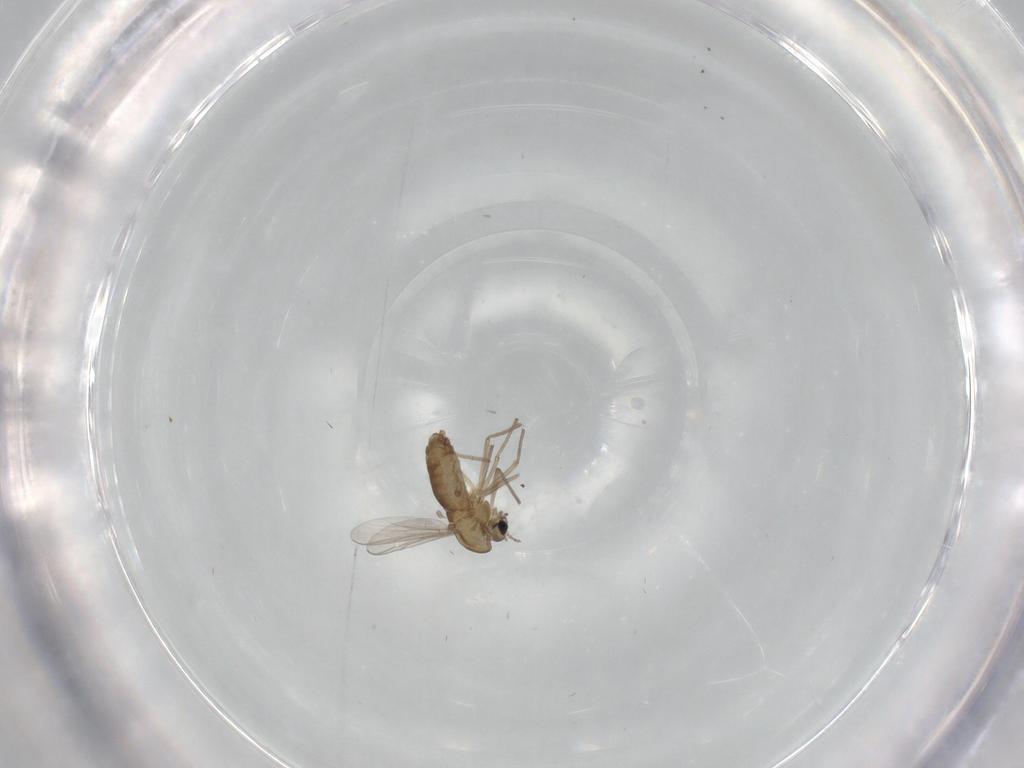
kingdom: Animalia
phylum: Arthropoda
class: Insecta
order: Diptera
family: Chironomidae
